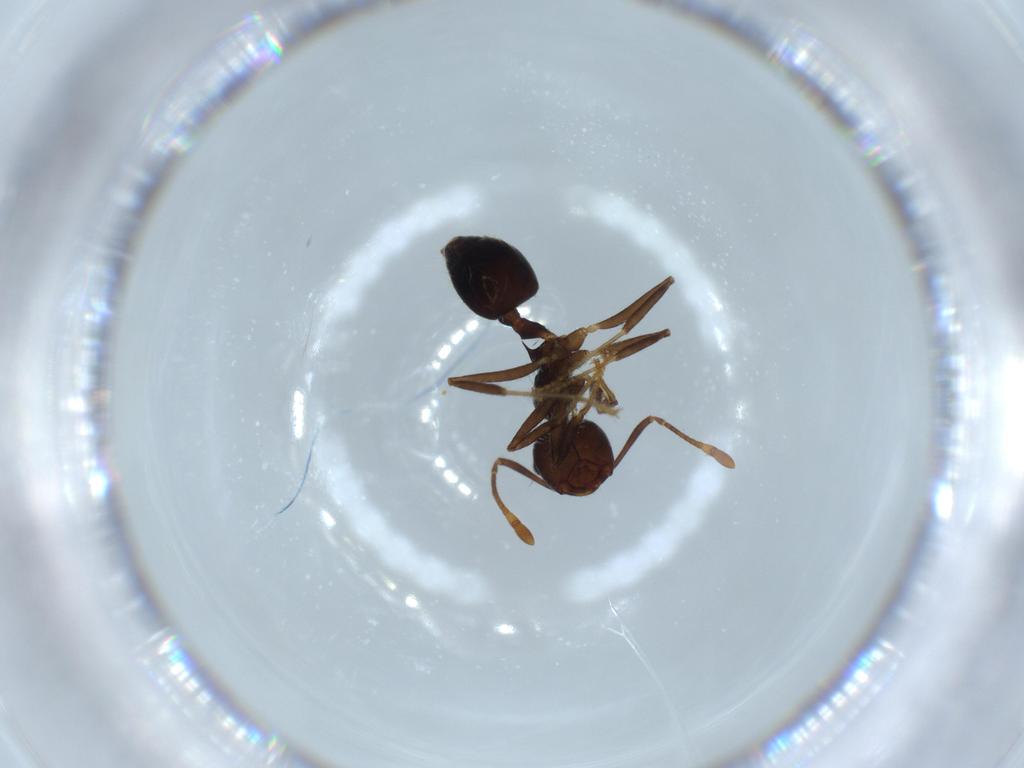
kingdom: Animalia
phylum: Arthropoda
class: Insecta
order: Hymenoptera
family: Formicidae
